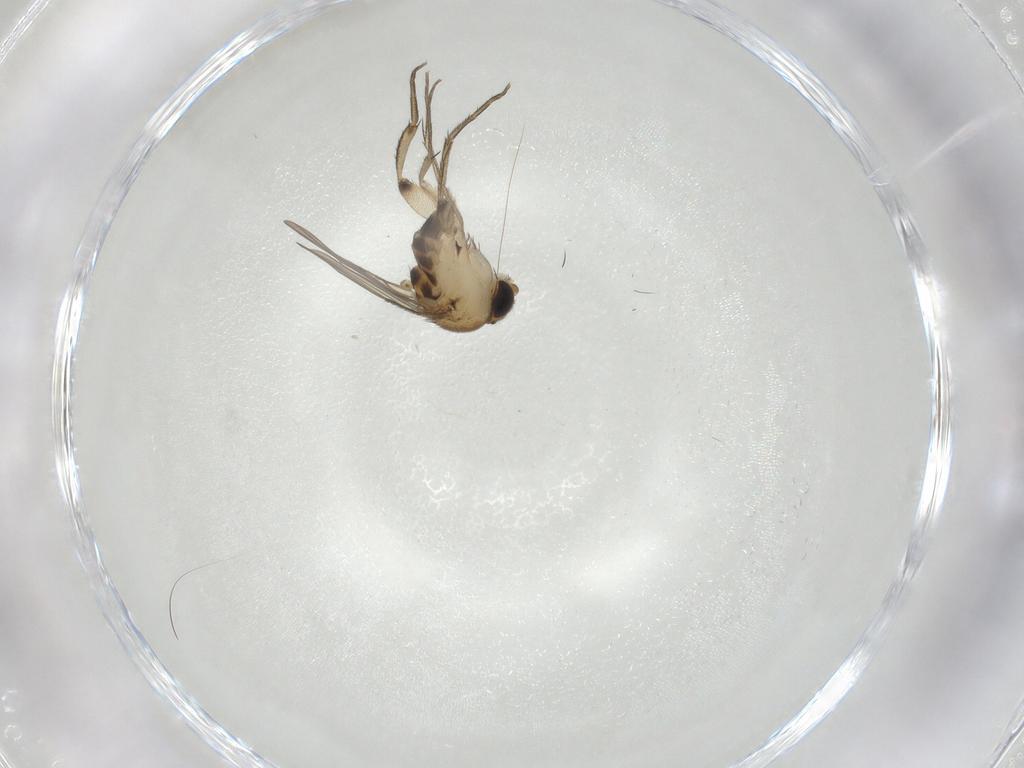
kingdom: Animalia
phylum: Arthropoda
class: Insecta
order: Diptera
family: Phoridae
